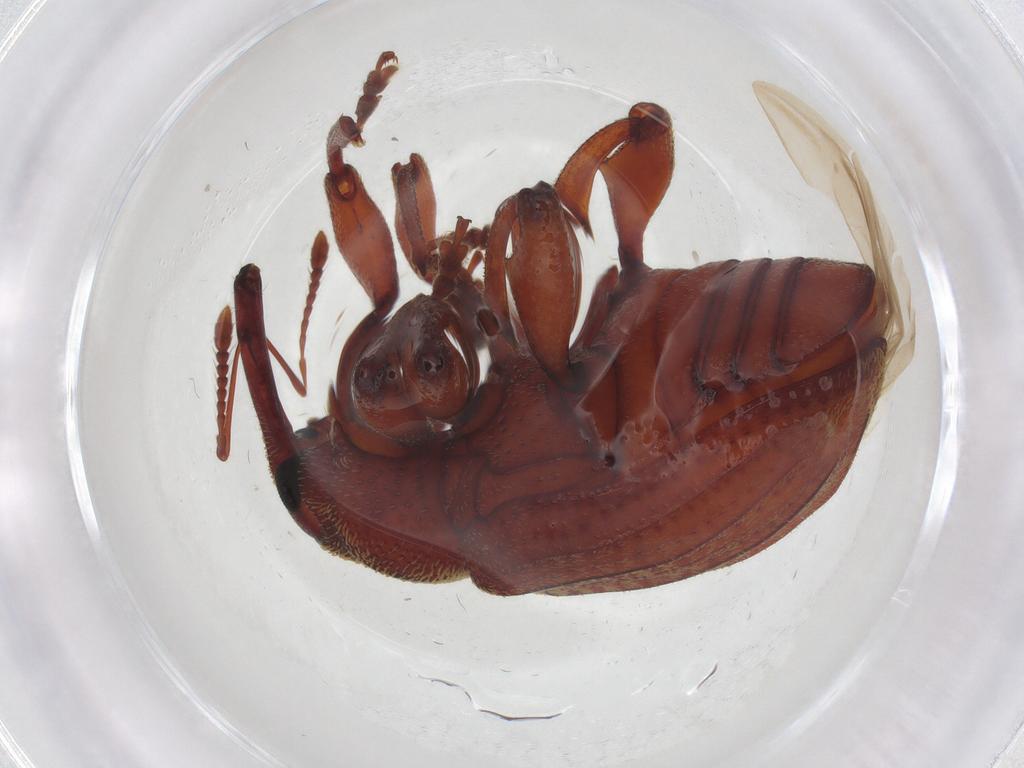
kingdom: Animalia
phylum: Arthropoda
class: Insecta
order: Coleoptera
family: Curculionidae
